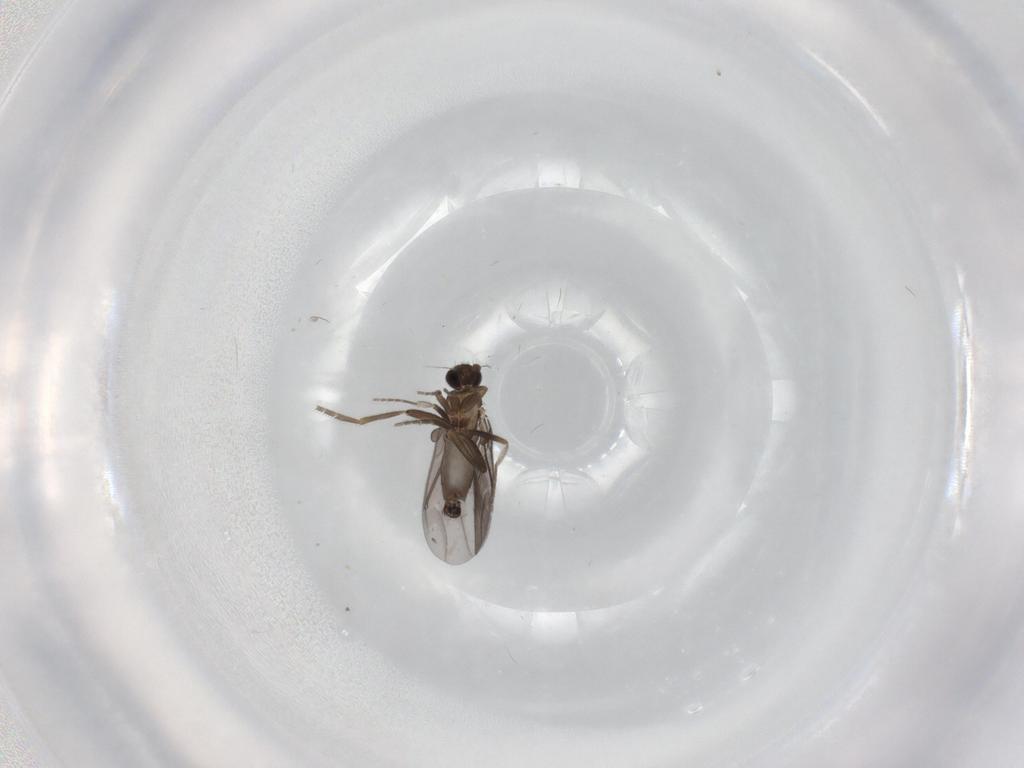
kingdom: Animalia
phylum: Arthropoda
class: Insecta
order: Diptera
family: Phoridae
